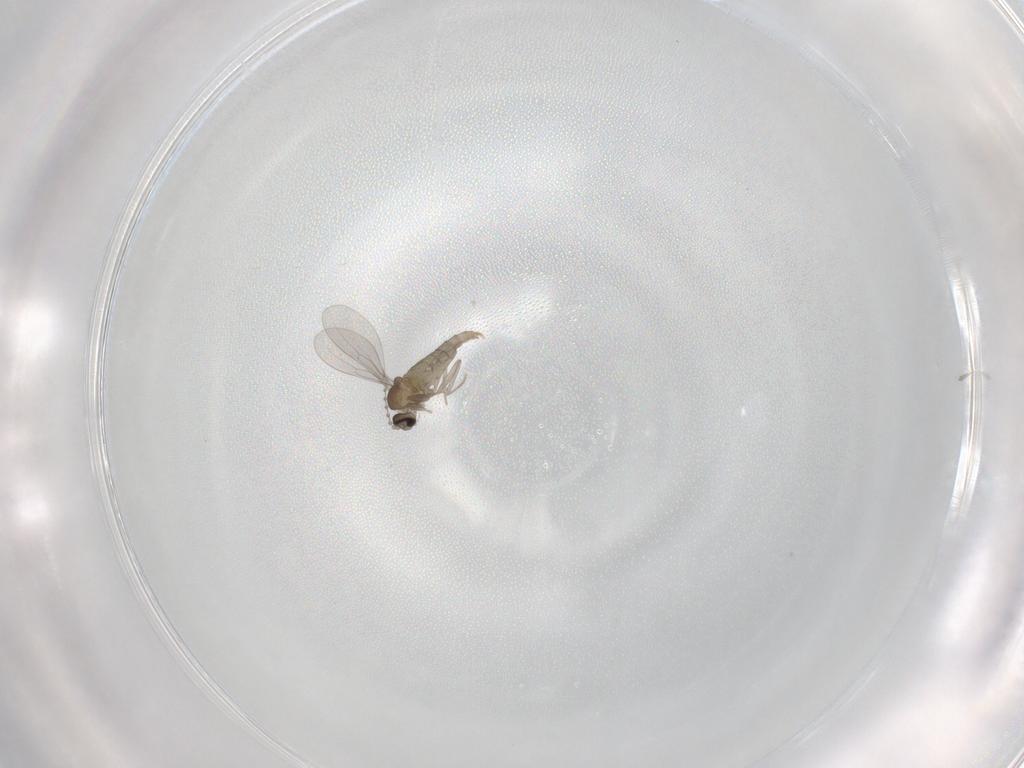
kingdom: Animalia
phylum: Arthropoda
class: Insecta
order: Diptera
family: Cecidomyiidae
